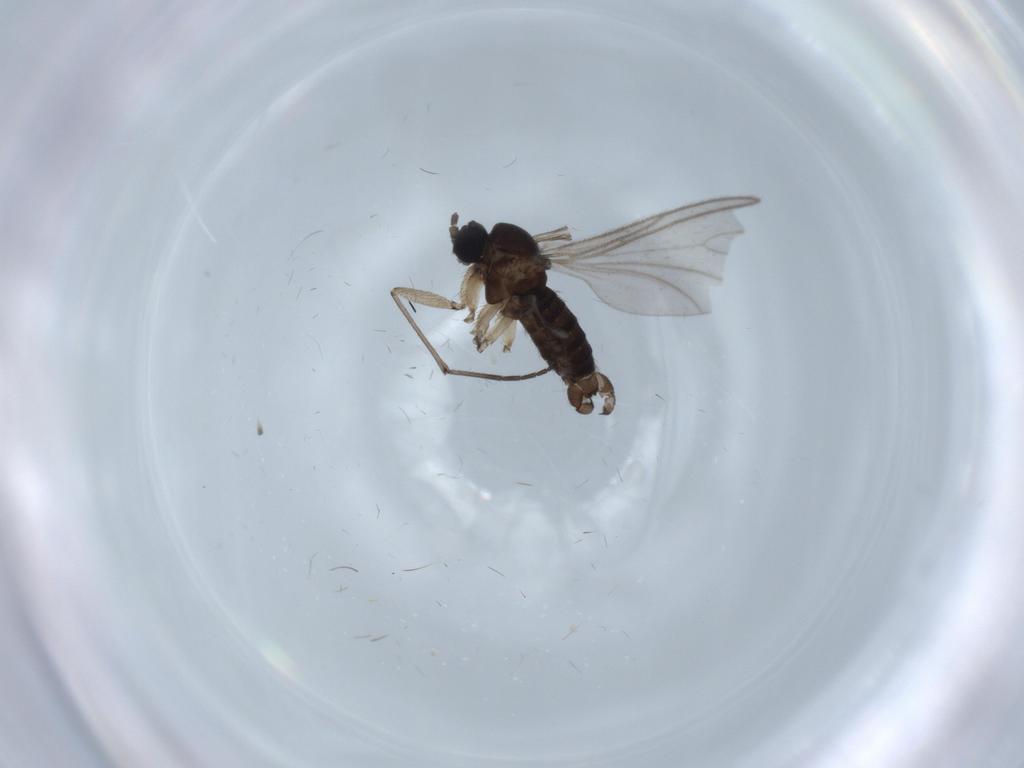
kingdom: Animalia
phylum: Arthropoda
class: Insecta
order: Diptera
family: Sciaridae
